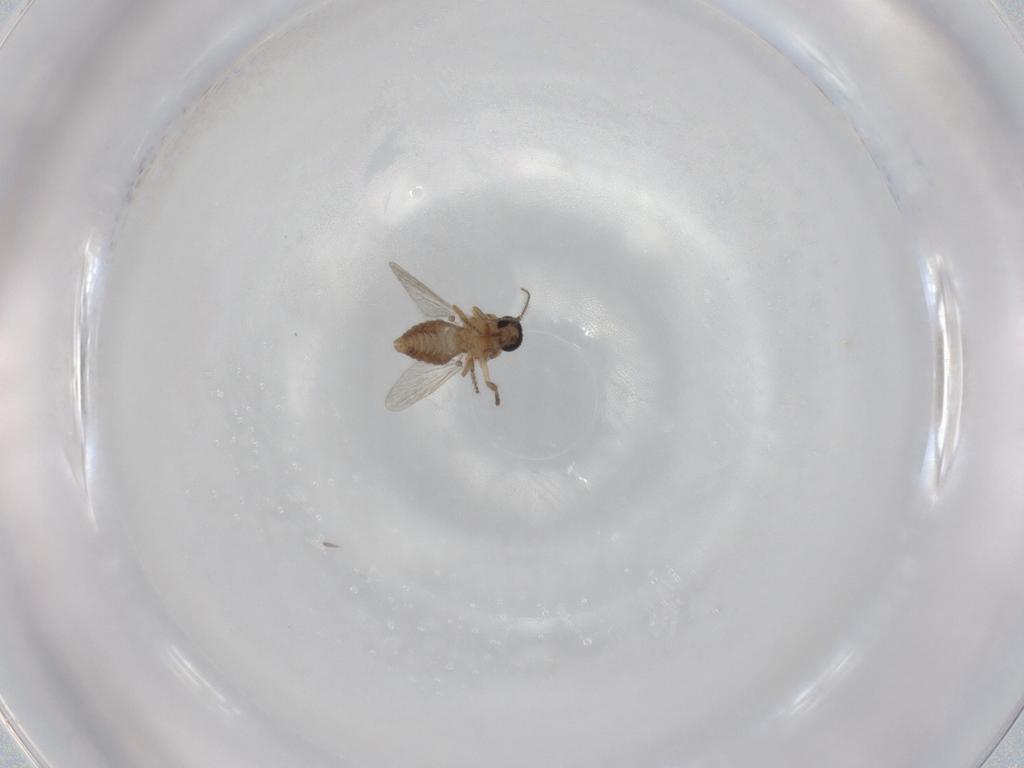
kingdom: Animalia
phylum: Arthropoda
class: Insecta
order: Diptera
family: Ceratopogonidae
